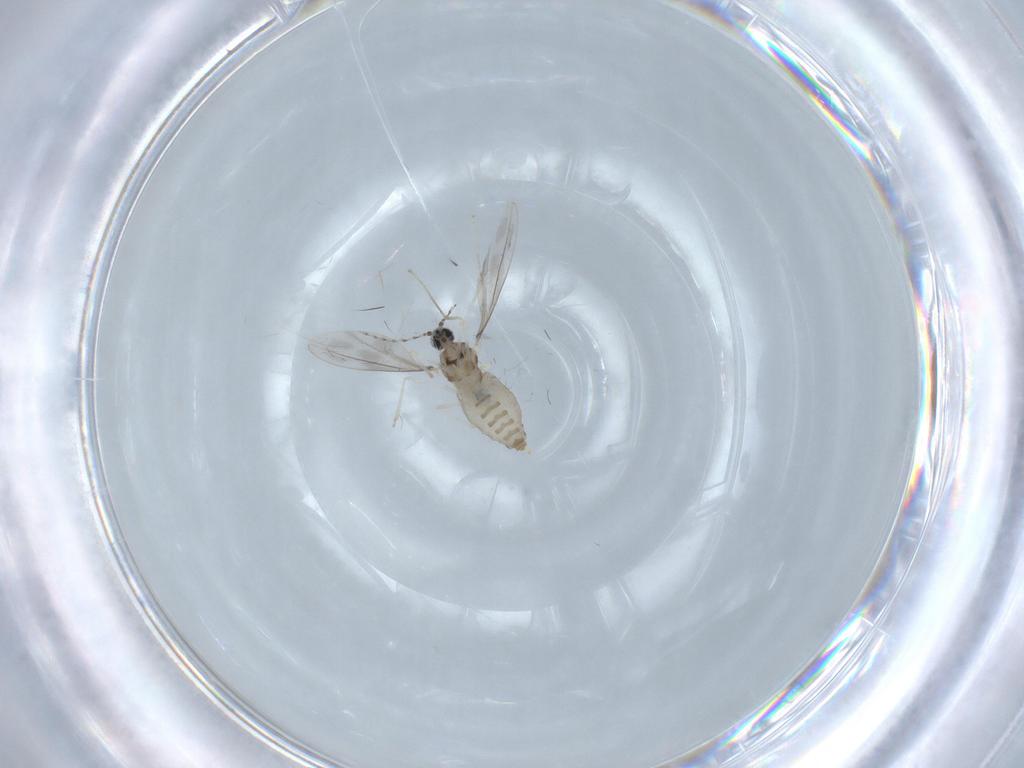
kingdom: Animalia
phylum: Arthropoda
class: Insecta
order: Diptera
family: Cecidomyiidae
